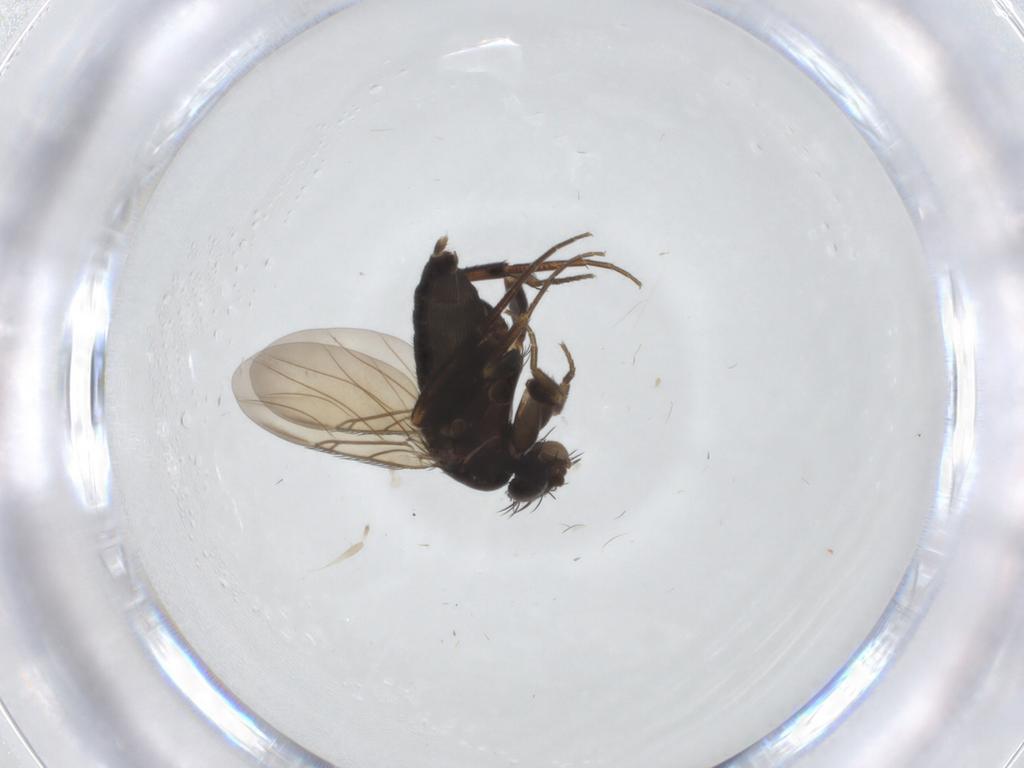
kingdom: Animalia
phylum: Arthropoda
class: Insecta
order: Diptera
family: Phoridae
